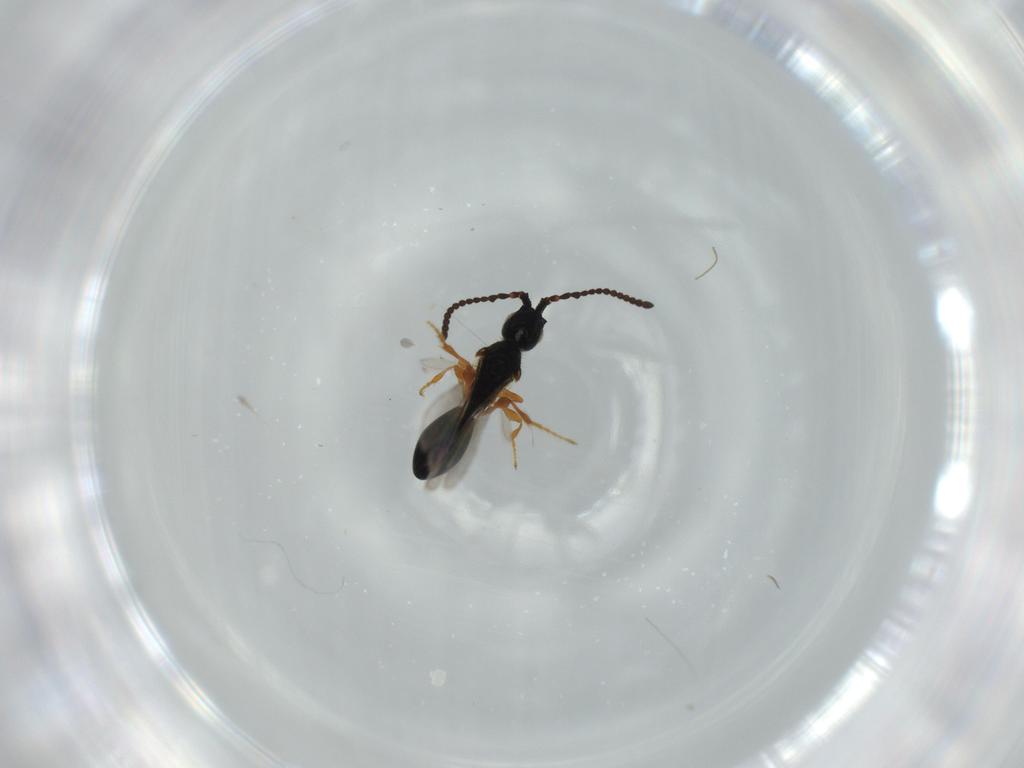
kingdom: Animalia
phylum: Arthropoda
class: Insecta
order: Hymenoptera
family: Diapriidae
